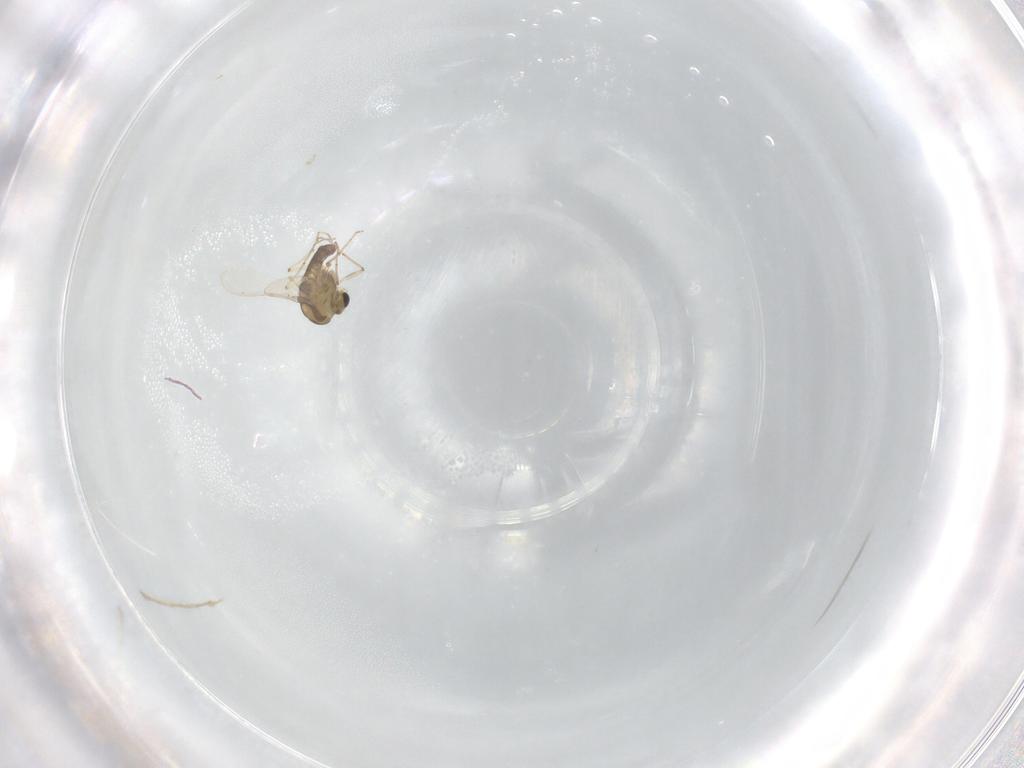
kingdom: Animalia
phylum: Arthropoda
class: Insecta
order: Diptera
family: Chironomidae
